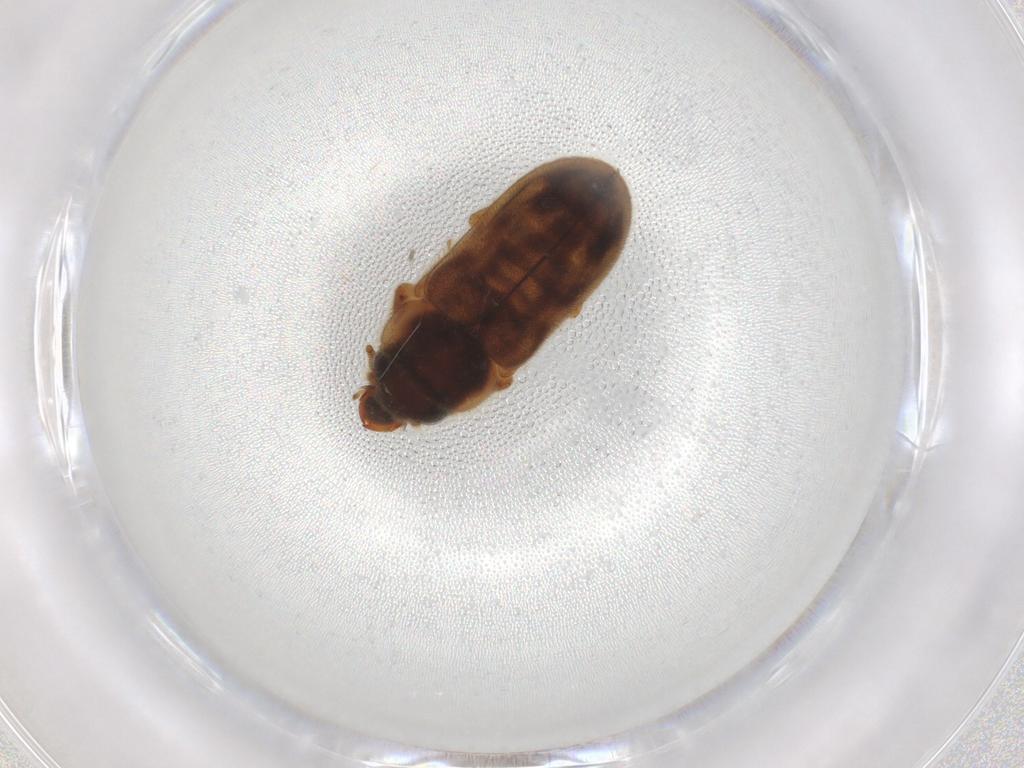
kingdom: Animalia
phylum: Arthropoda
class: Insecta
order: Coleoptera
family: Heteroceridae
